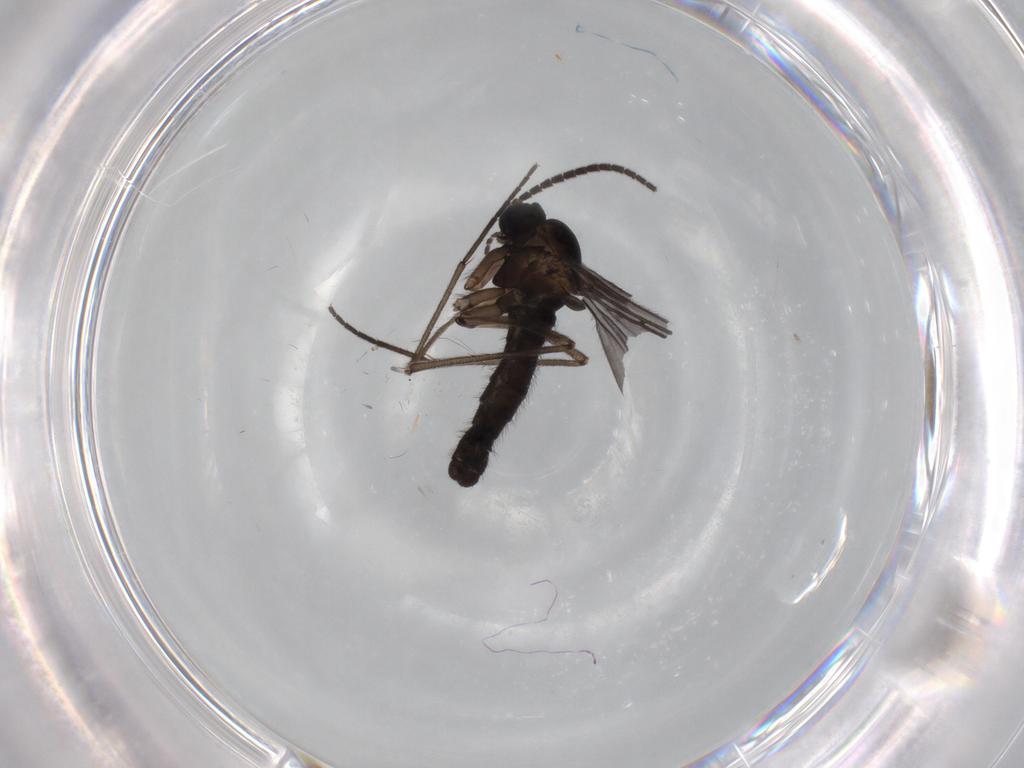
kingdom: Animalia
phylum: Arthropoda
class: Insecta
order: Diptera
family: Sciaridae
